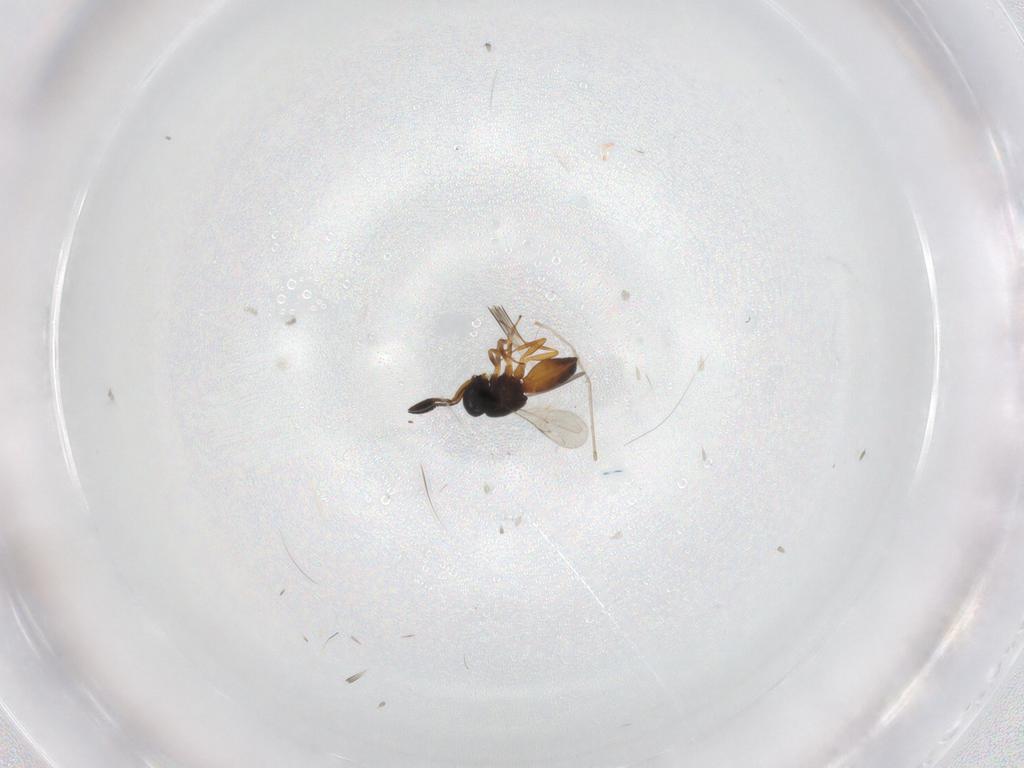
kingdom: Animalia
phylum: Arthropoda
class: Insecta
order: Hymenoptera
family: Scelionidae
